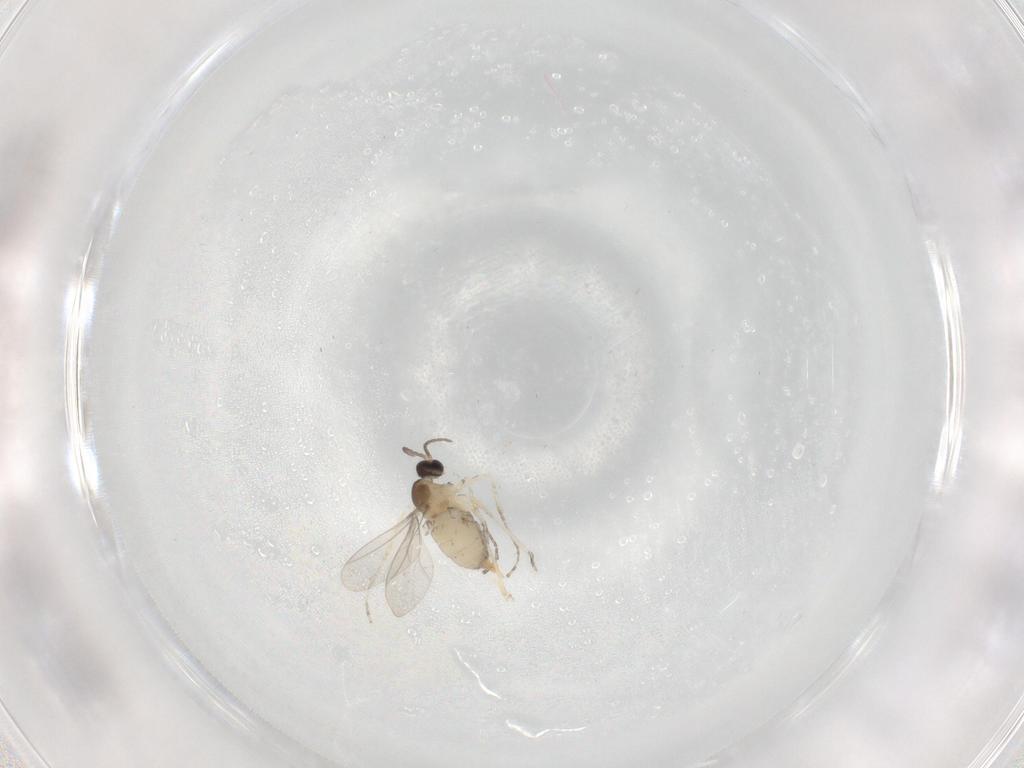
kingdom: Animalia
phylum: Arthropoda
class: Insecta
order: Diptera
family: Cecidomyiidae
